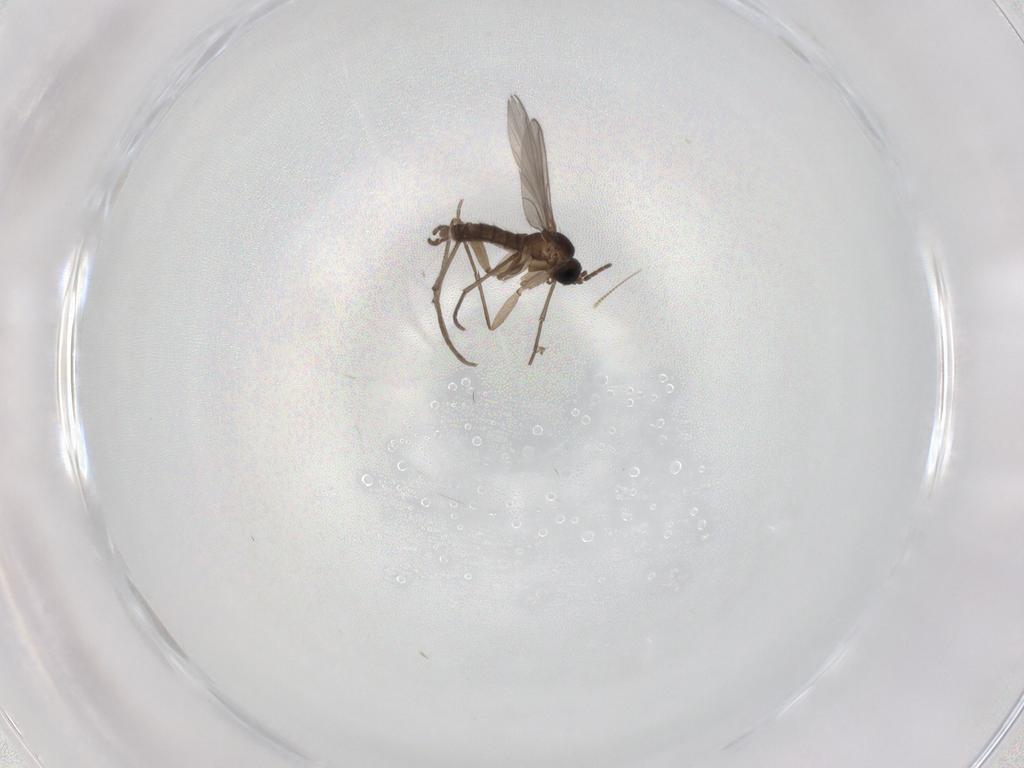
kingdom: Animalia
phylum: Arthropoda
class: Insecta
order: Diptera
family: Sciaridae
